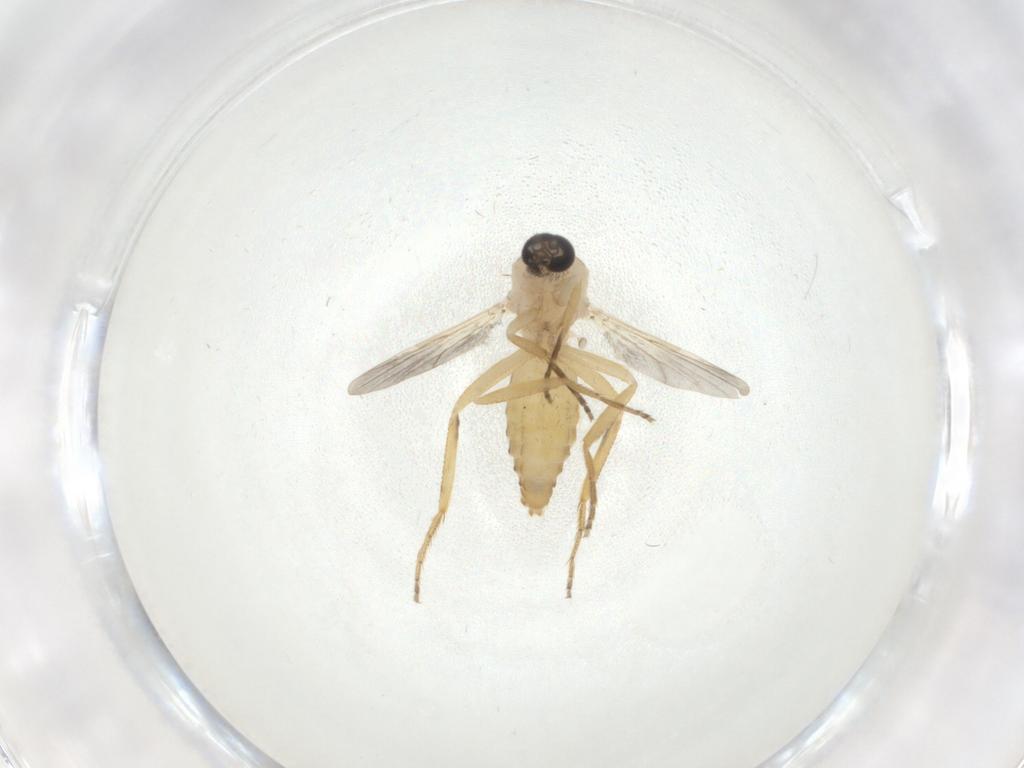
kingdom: Animalia
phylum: Arthropoda
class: Insecta
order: Diptera
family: Ceratopogonidae
